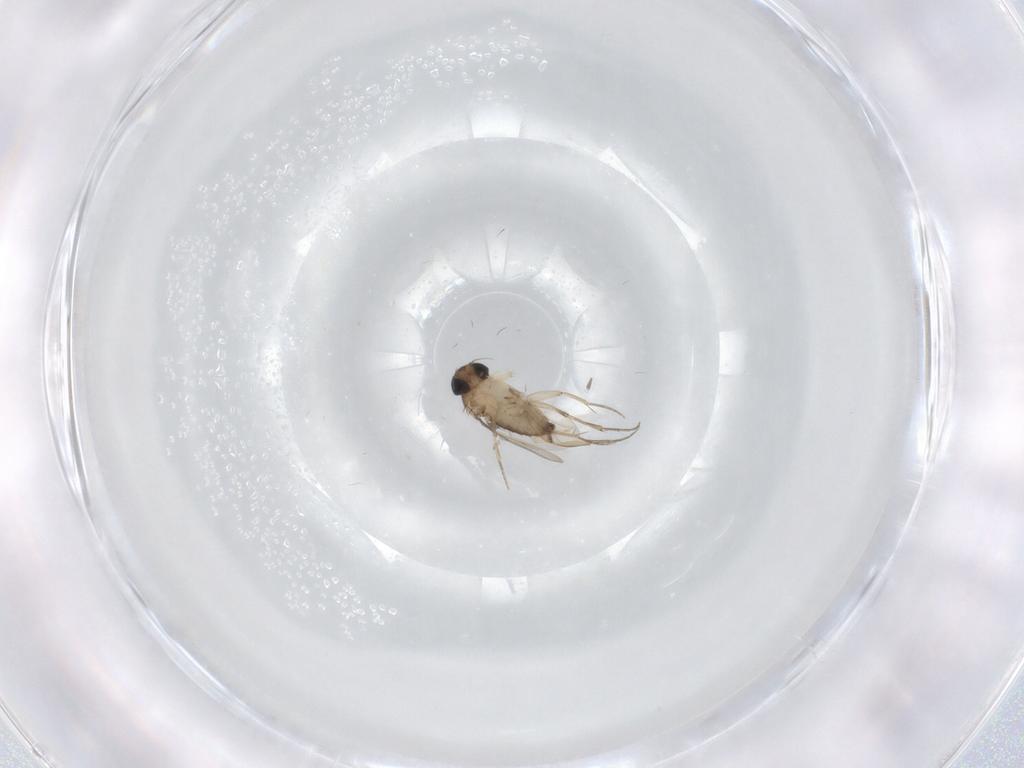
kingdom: Animalia
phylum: Arthropoda
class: Insecta
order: Diptera
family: Phoridae
